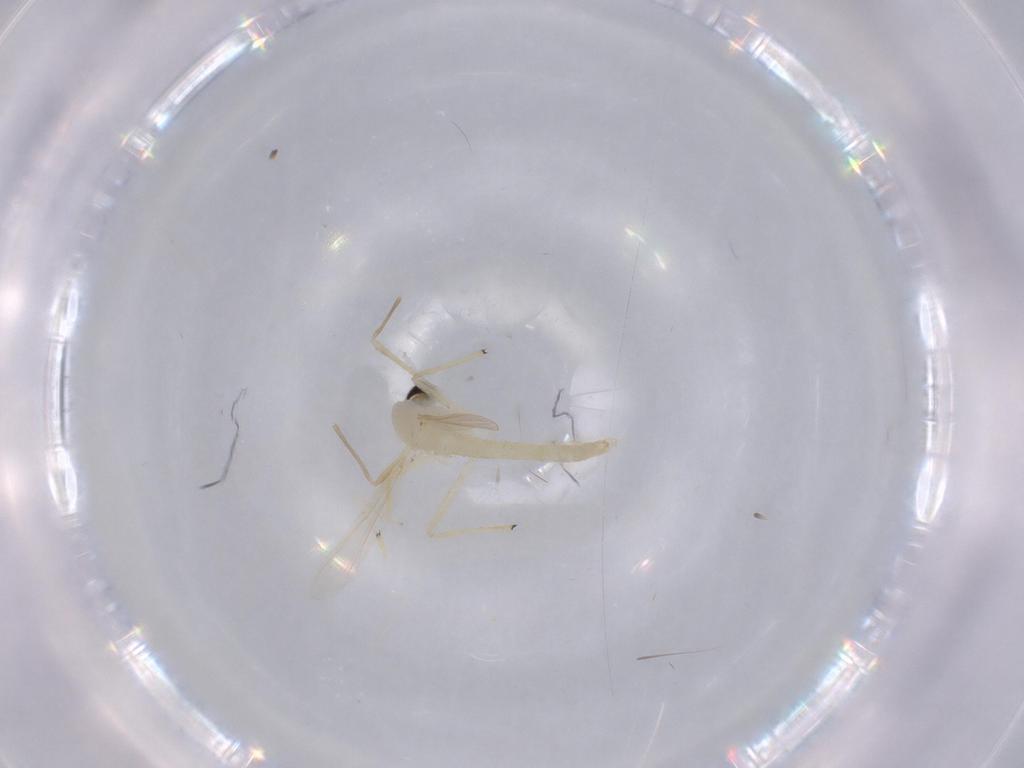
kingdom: Animalia
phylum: Arthropoda
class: Insecta
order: Diptera
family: Chironomidae
